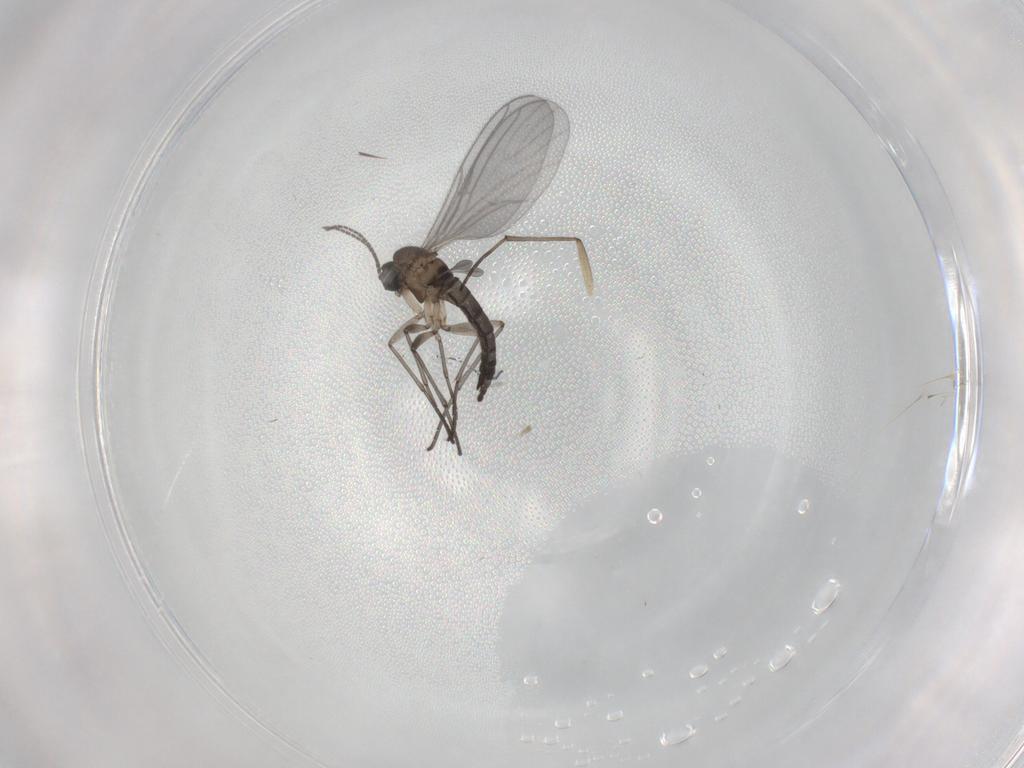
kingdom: Animalia
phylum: Arthropoda
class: Insecta
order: Diptera
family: Sciaridae
